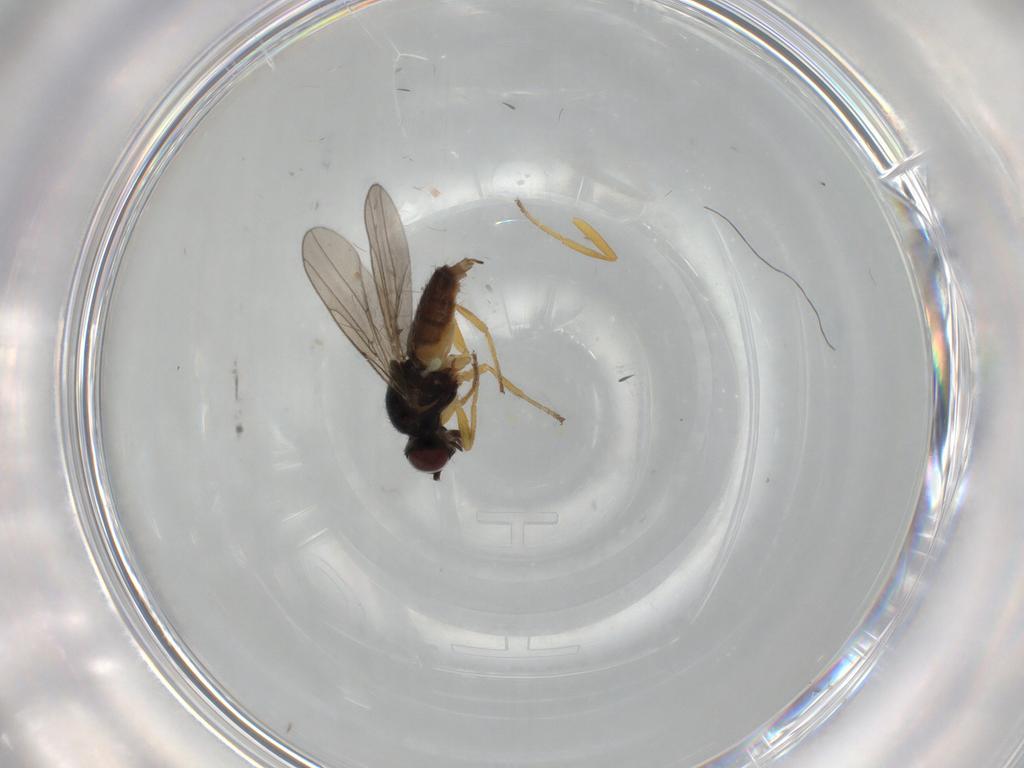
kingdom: Animalia
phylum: Arthropoda
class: Insecta
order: Diptera
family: Chloropidae
